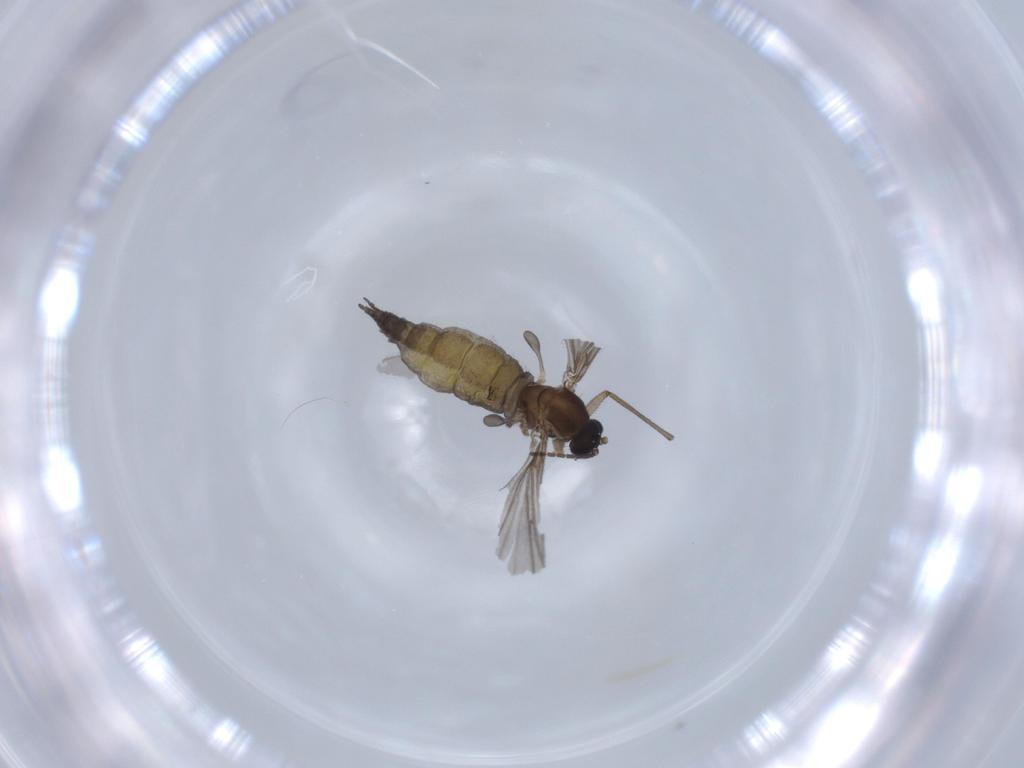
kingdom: Animalia
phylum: Arthropoda
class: Insecta
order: Diptera
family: Sciaridae
